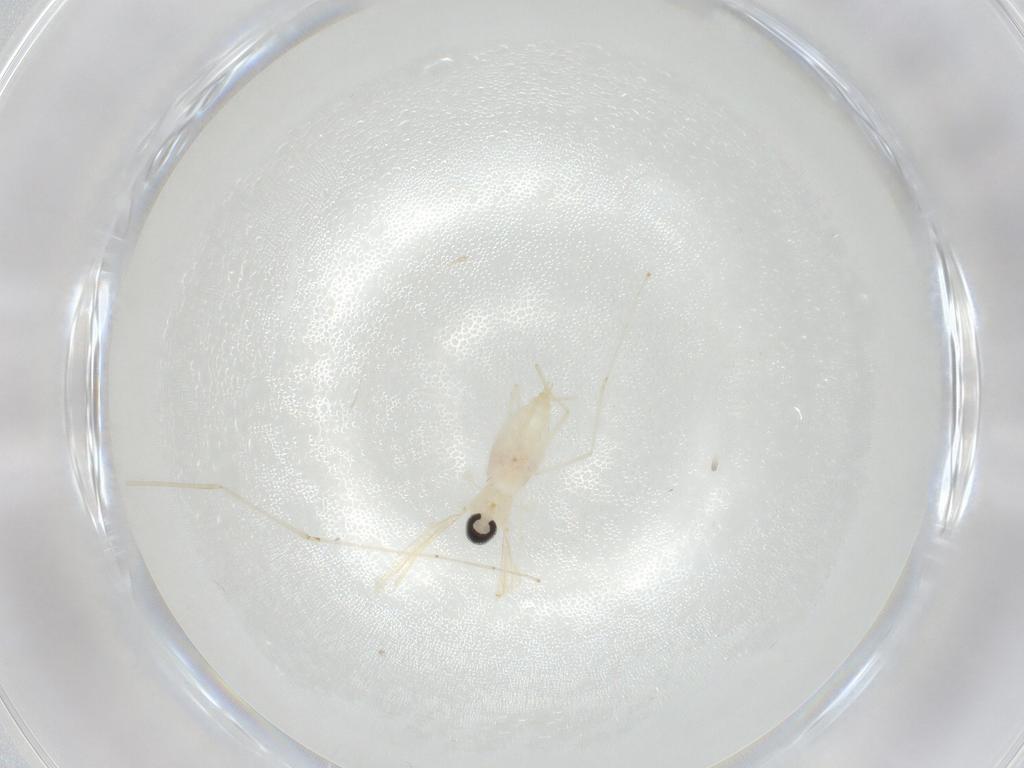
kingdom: Animalia
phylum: Arthropoda
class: Insecta
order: Diptera
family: Cecidomyiidae
